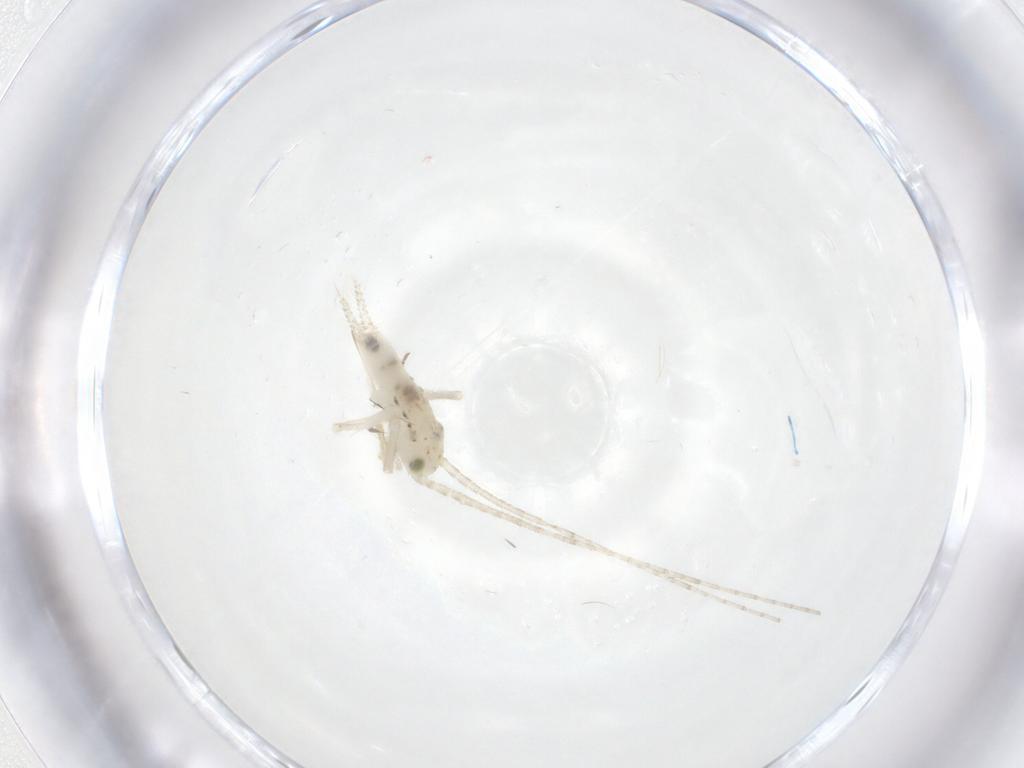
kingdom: Animalia
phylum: Arthropoda
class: Insecta
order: Orthoptera
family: Trigonidiidae
